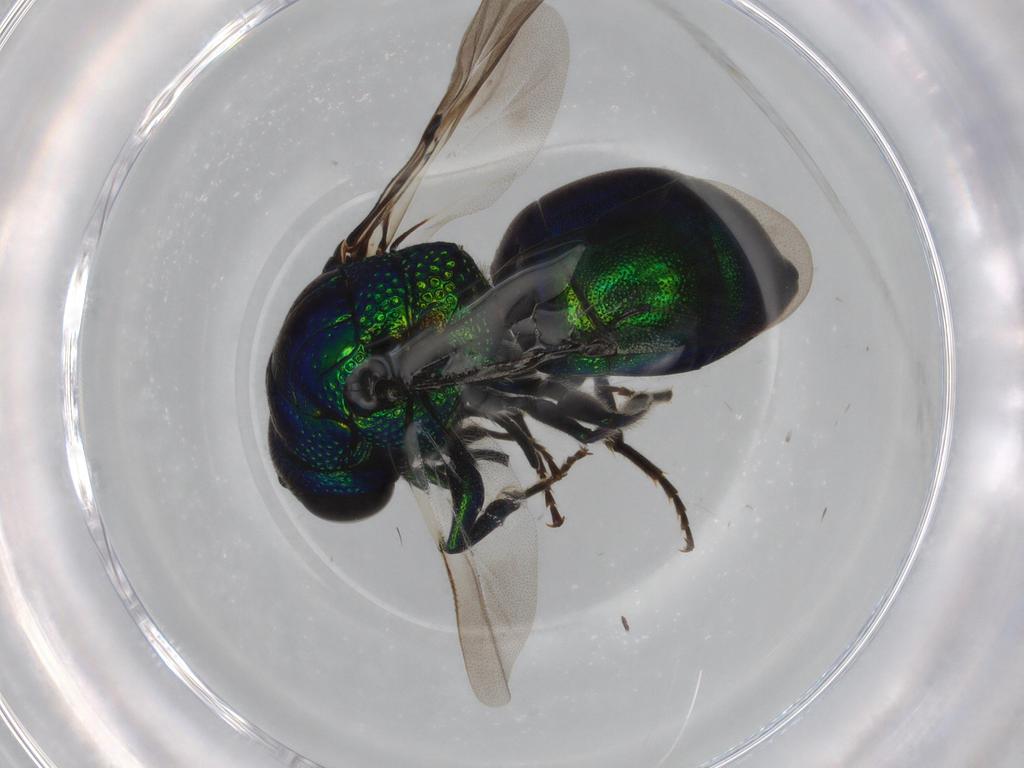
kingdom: Animalia
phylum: Arthropoda
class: Insecta
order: Hymenoptera
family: Chrysididae
